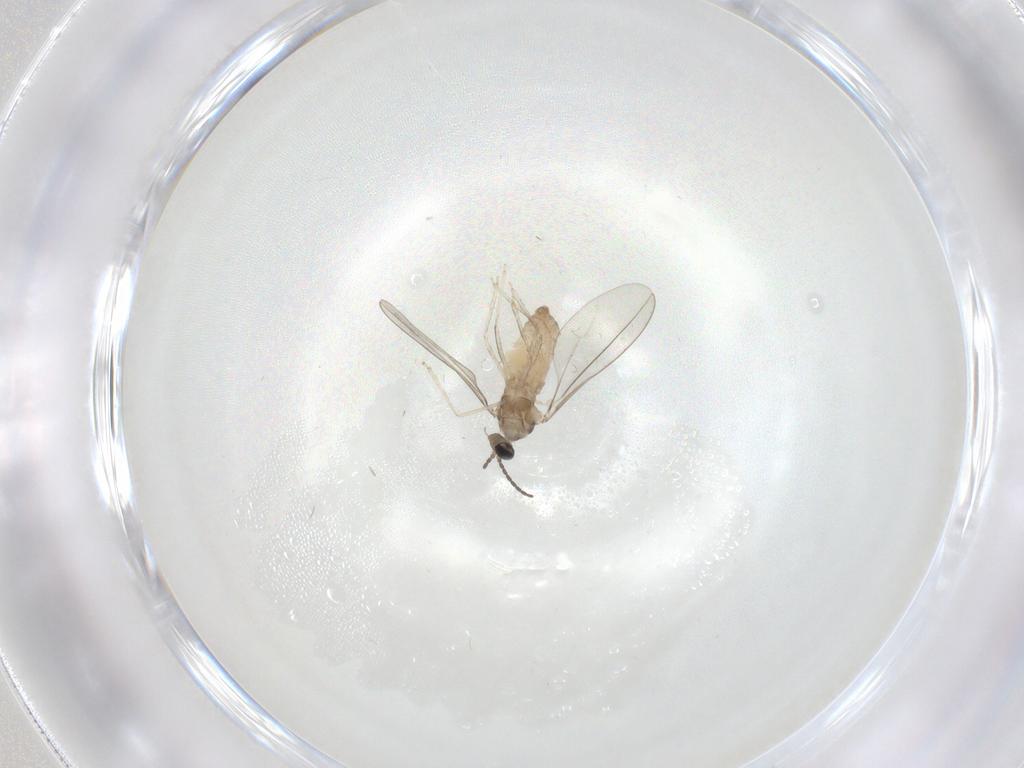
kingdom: Animalia
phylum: Arthropoda
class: Insecta
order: Diptera
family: Cecidomyiidae
